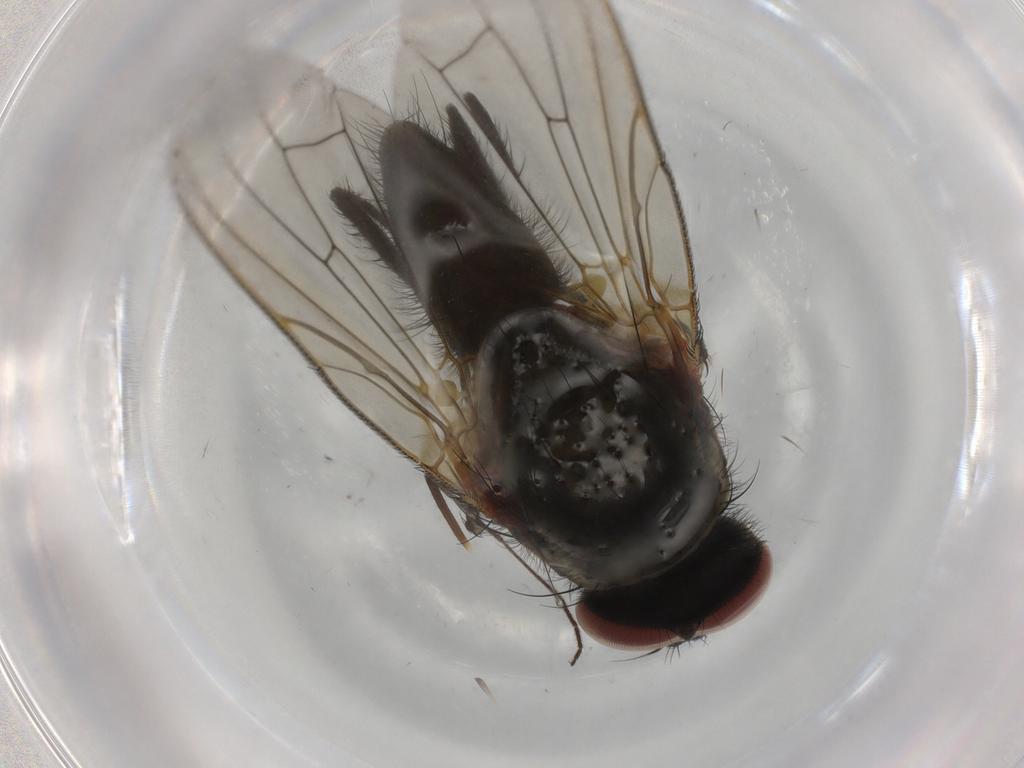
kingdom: Animalia
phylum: Arthropoda
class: Insecta
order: Diptera
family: Anthomyiidae
